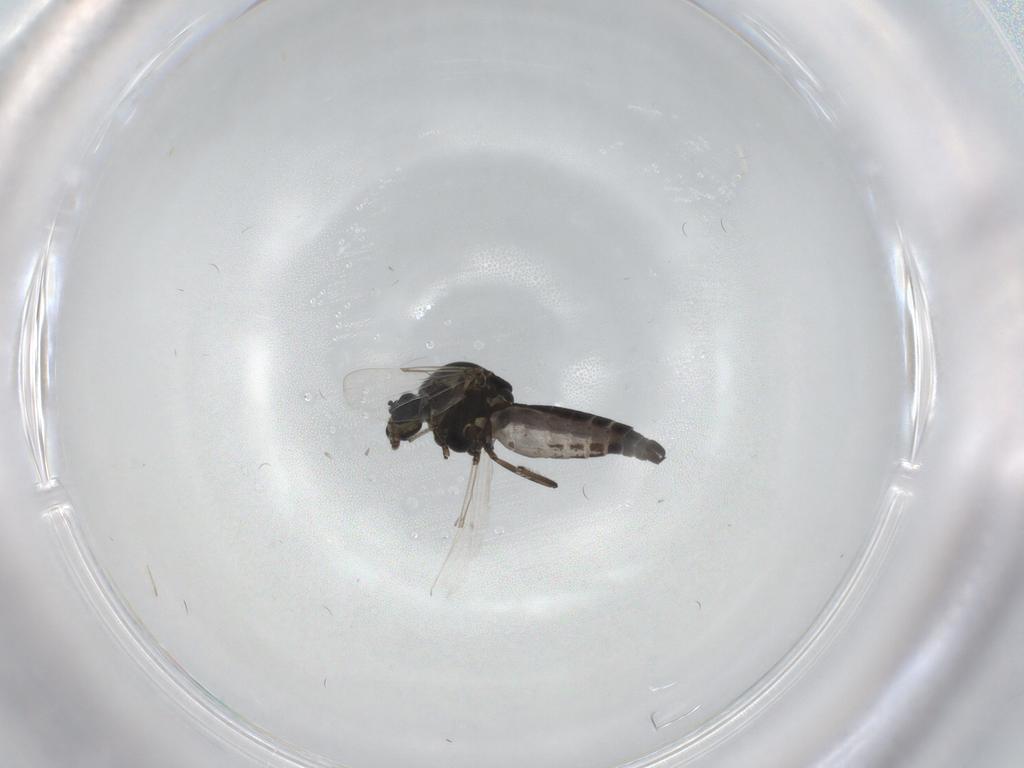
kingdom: Animalia
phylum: Arthropoda
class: Insecta
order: Diptera
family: Ceratopogonidae
